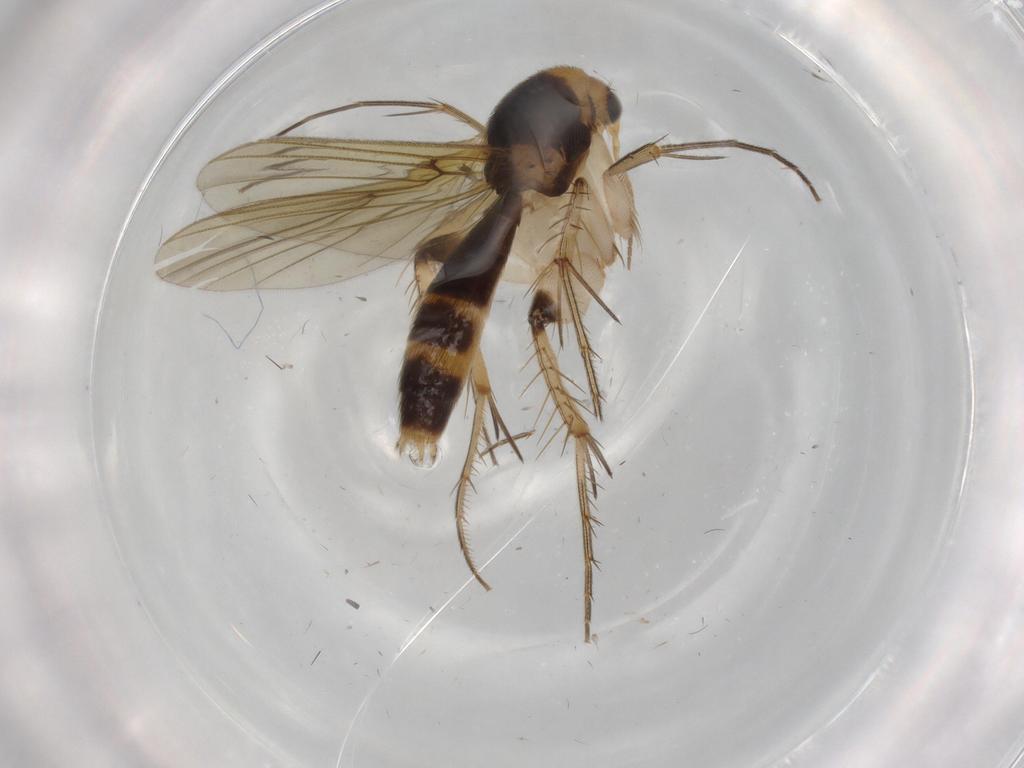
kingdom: Animalia
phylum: Arthropoda
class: Insecta
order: Diptera
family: Chironomidae
